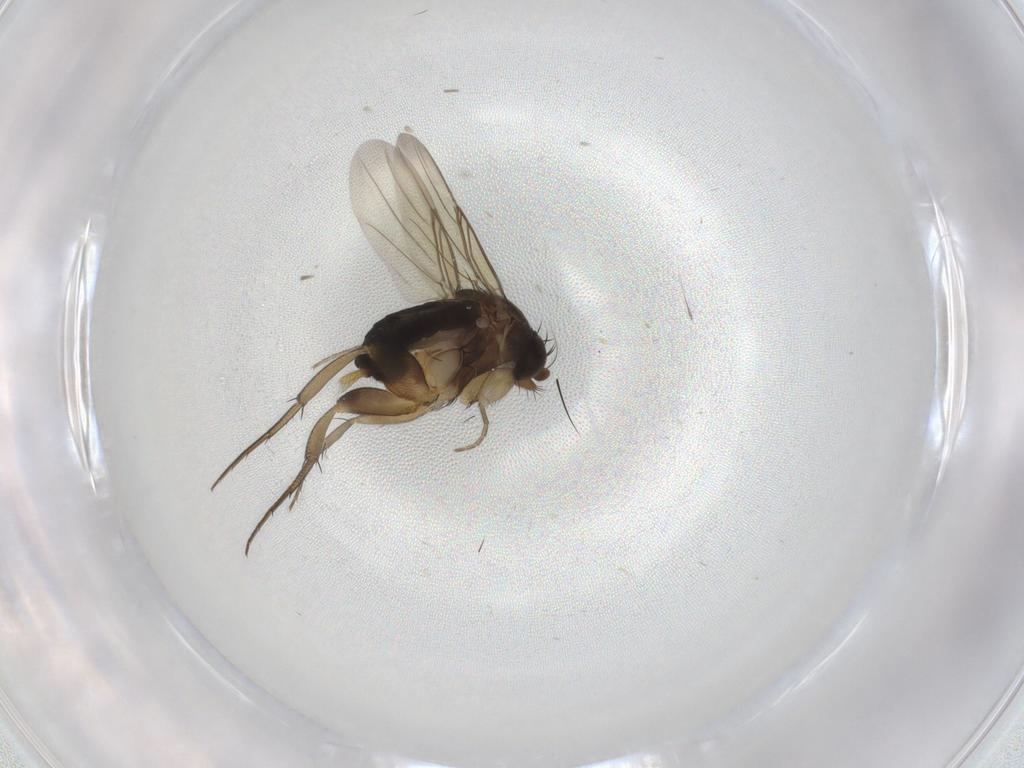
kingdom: Animalia
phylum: Arthropoda
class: Insecta
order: Diptera
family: Phoridae
